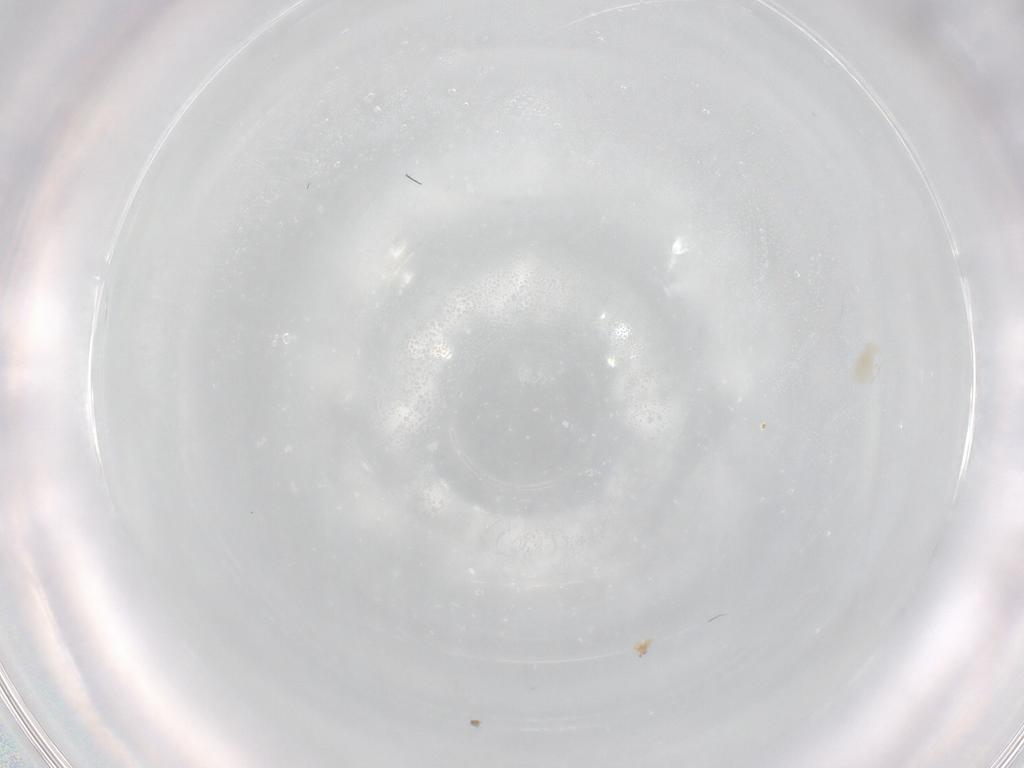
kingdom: Animalia
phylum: Arthropoda
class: Arachnida
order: Trombidiformes
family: Eupodidae
